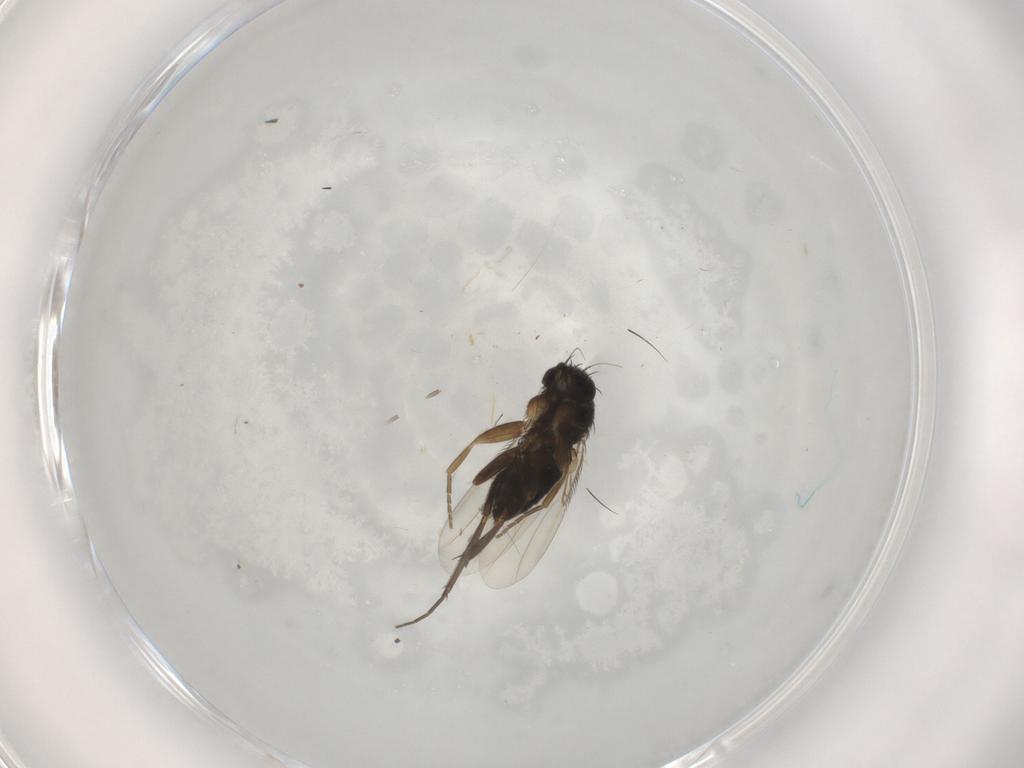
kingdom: Animalia
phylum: Arthropoda
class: Insecta
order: Diptera
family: Phoridae
